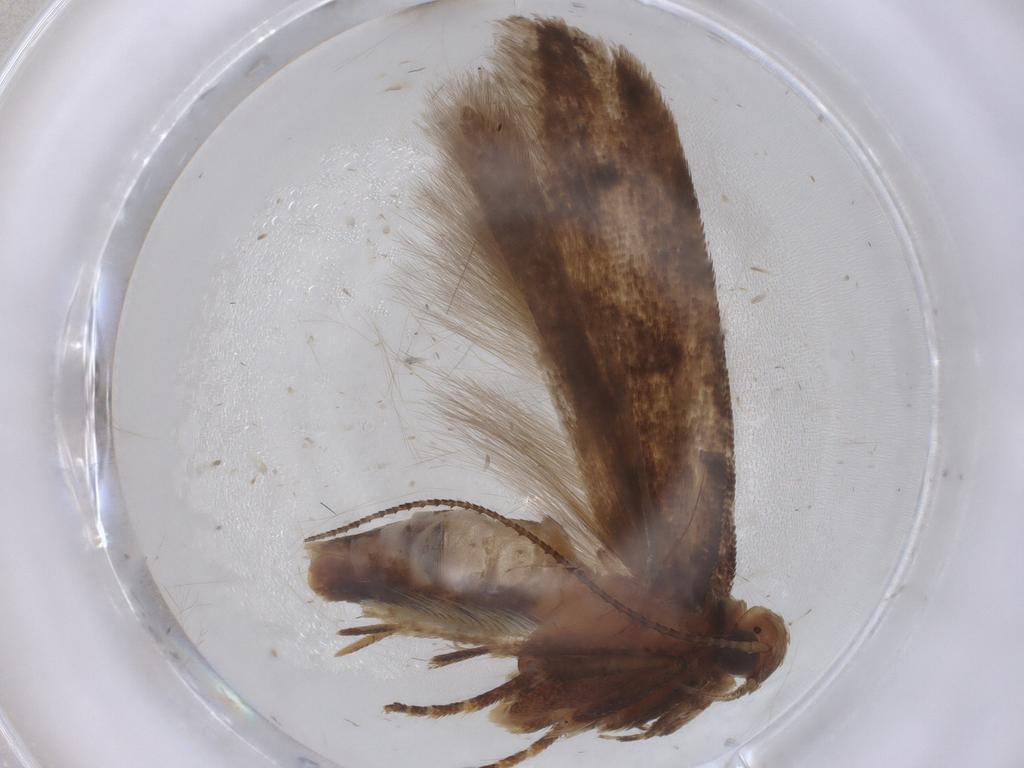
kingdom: Animalia
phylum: Arthropoda
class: Insecta
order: Lepidoptera
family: Gelechiidae
